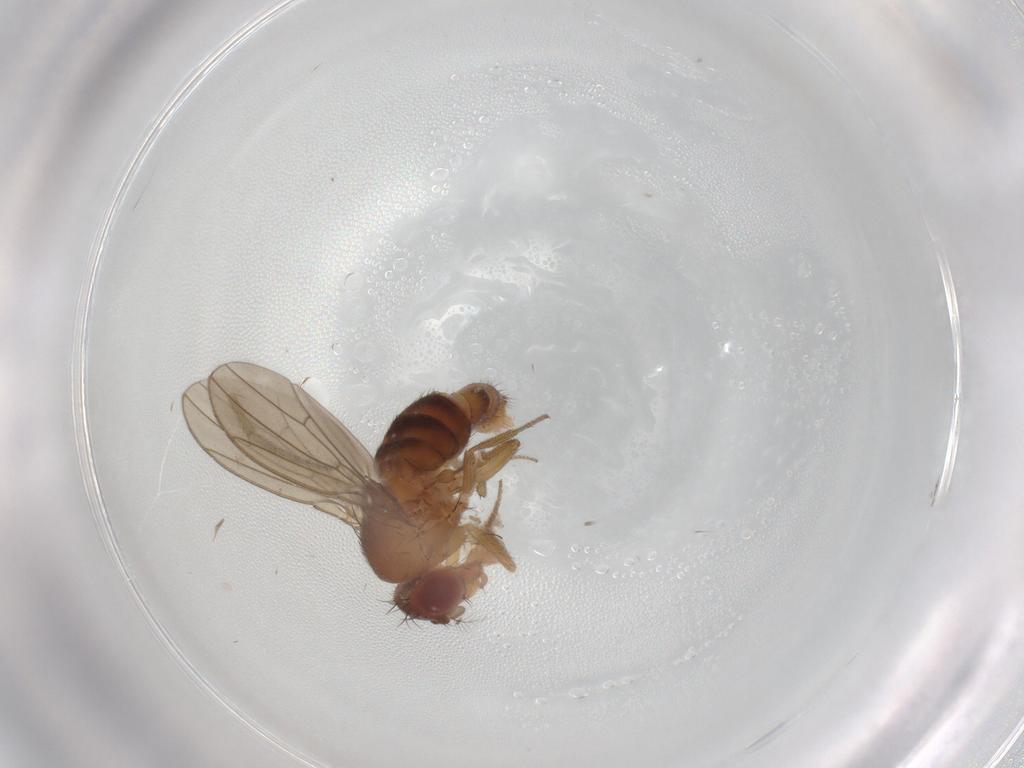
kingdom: Animalia
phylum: Arthropoda
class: Insecta
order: Diptera
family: Drosophilidae
